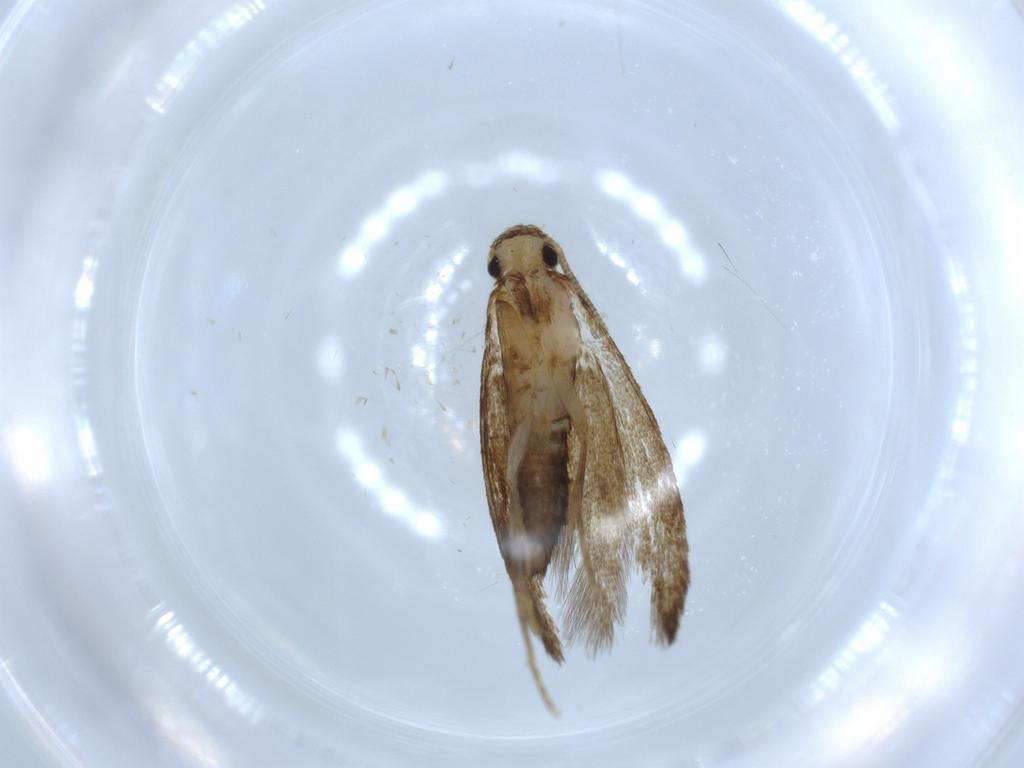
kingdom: Animalia
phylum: Arthropoda
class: Insecta
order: Lepidoptera
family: Tineidae
